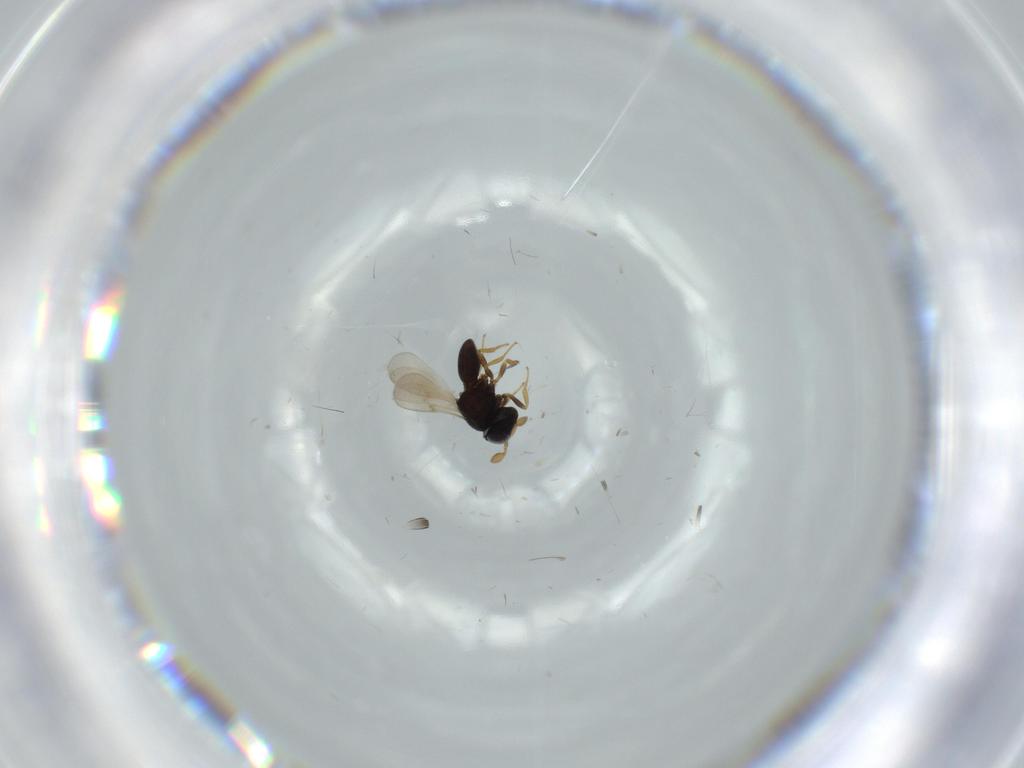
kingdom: Animalia
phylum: Arthropoda
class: Insecta
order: Hymenoptera
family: Scelionidae
